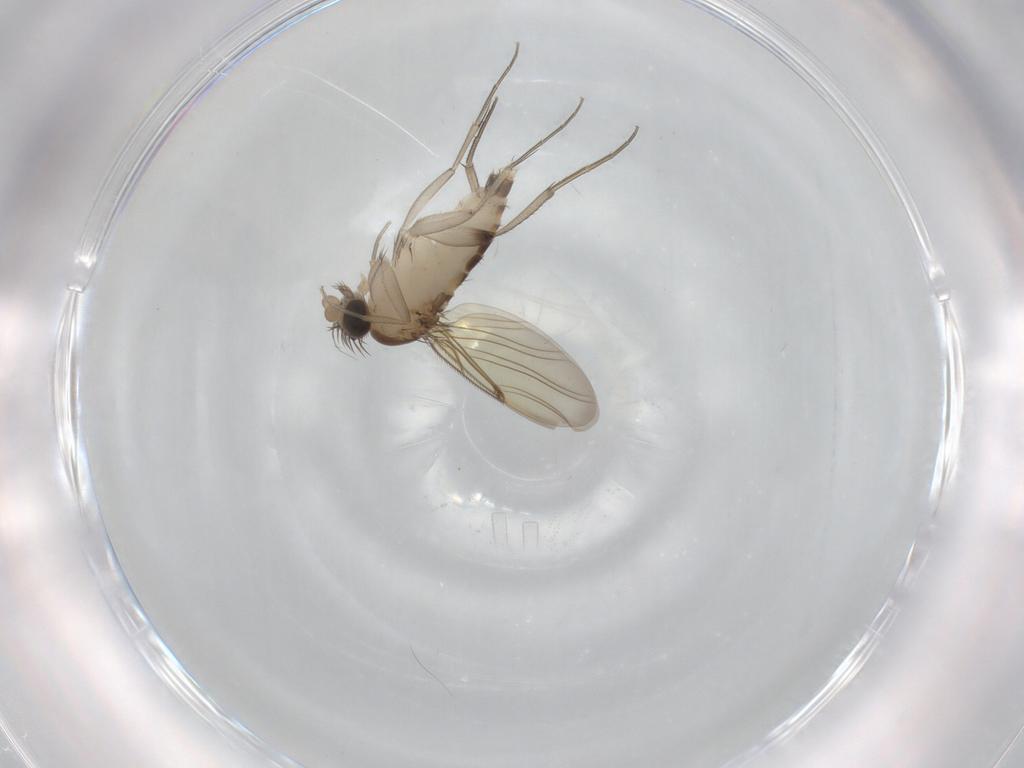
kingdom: Animalia
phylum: Arthropoda
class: Insecta
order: Diptera
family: Phoridae
